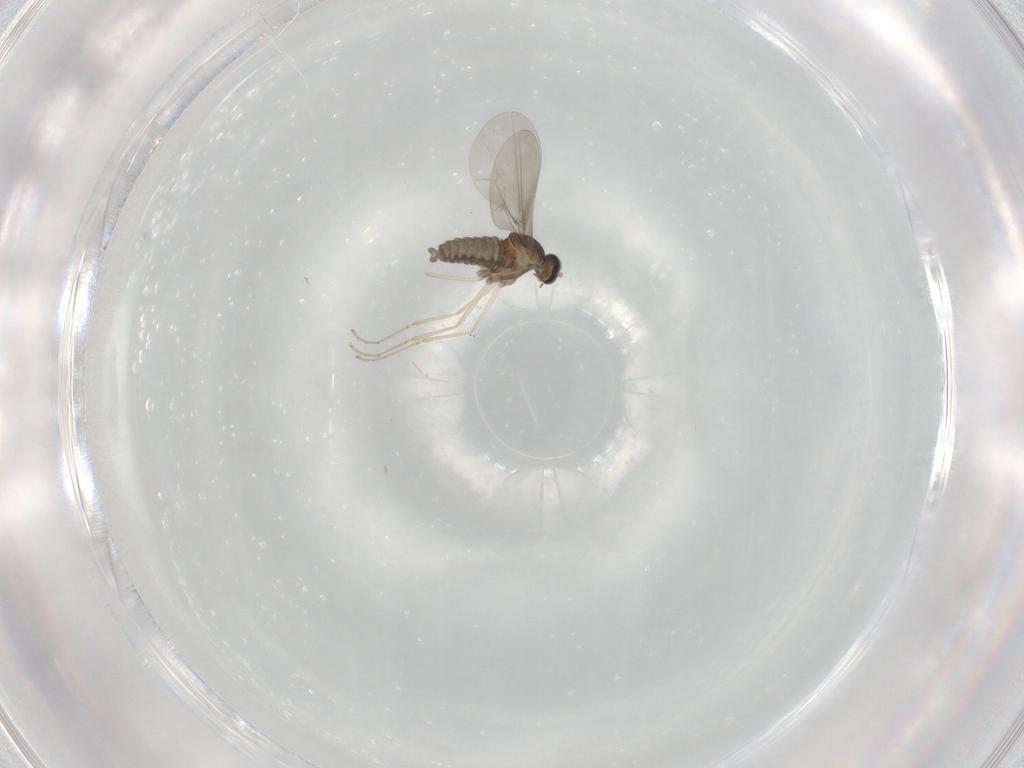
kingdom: Animalia
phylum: Arthropoda
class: Insecta
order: Diptera
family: Cecidomyiidae
